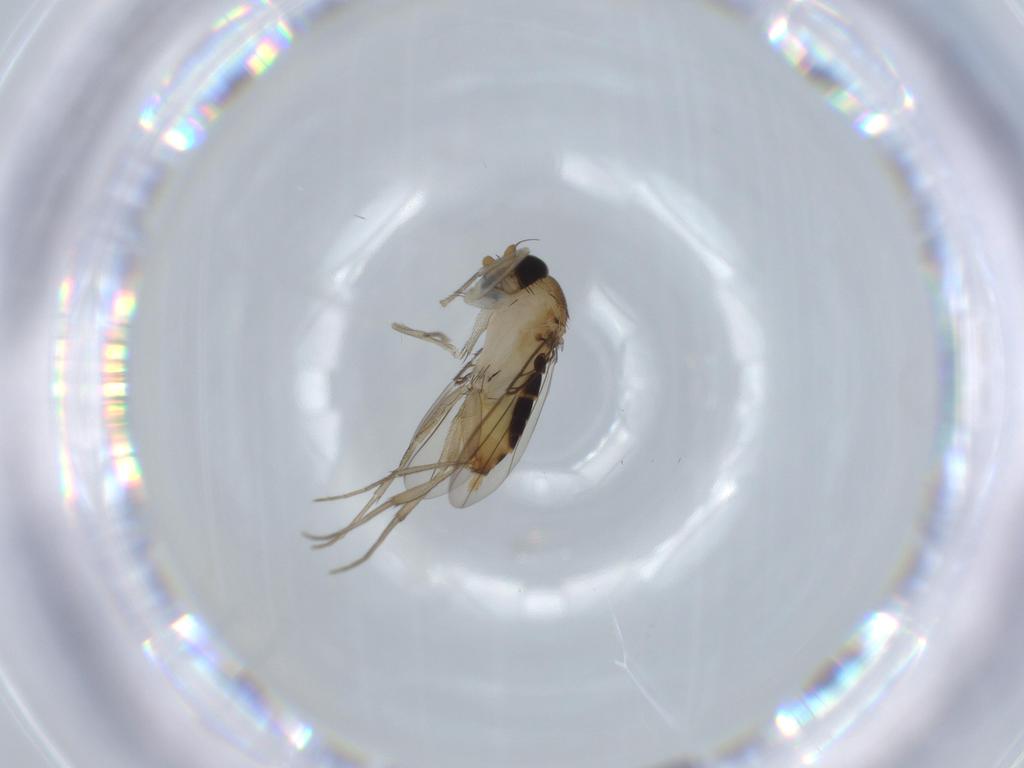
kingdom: Animalia
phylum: Arthropoda
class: Insecta
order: Diptera
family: Phoridae
